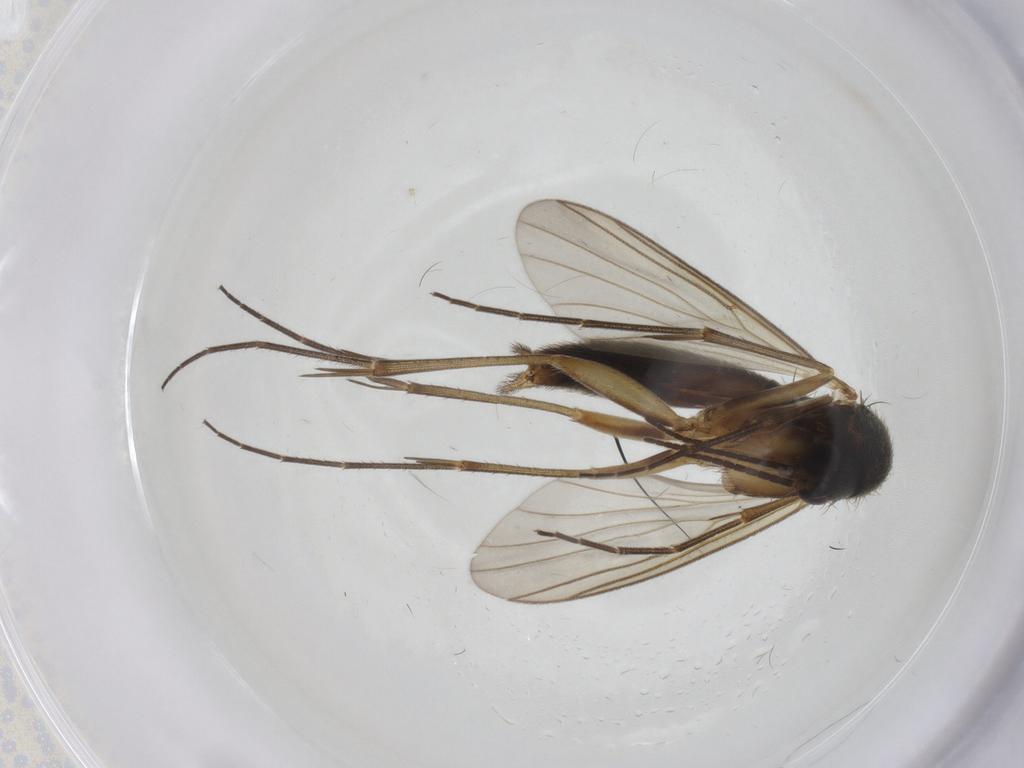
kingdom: Animalia
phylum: Arthropoda
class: Insecta
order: Diptera
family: Sciaridae
